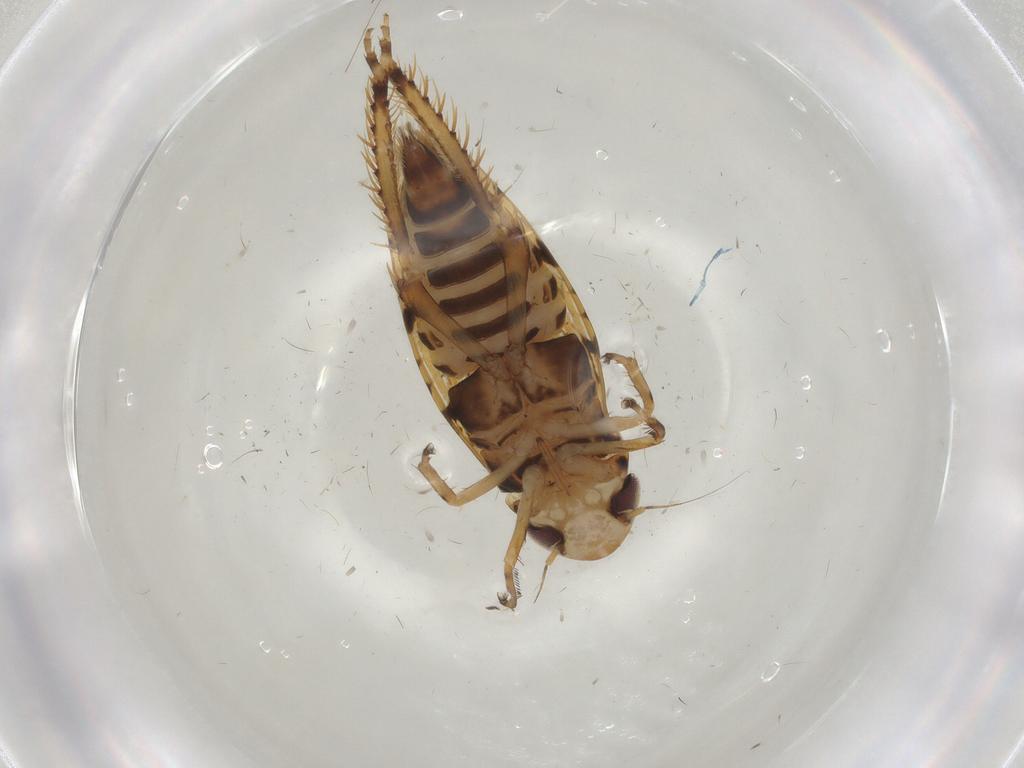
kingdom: Animalia
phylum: Arthropoda
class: Insecta
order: Hemiptera
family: Cicadellidae
